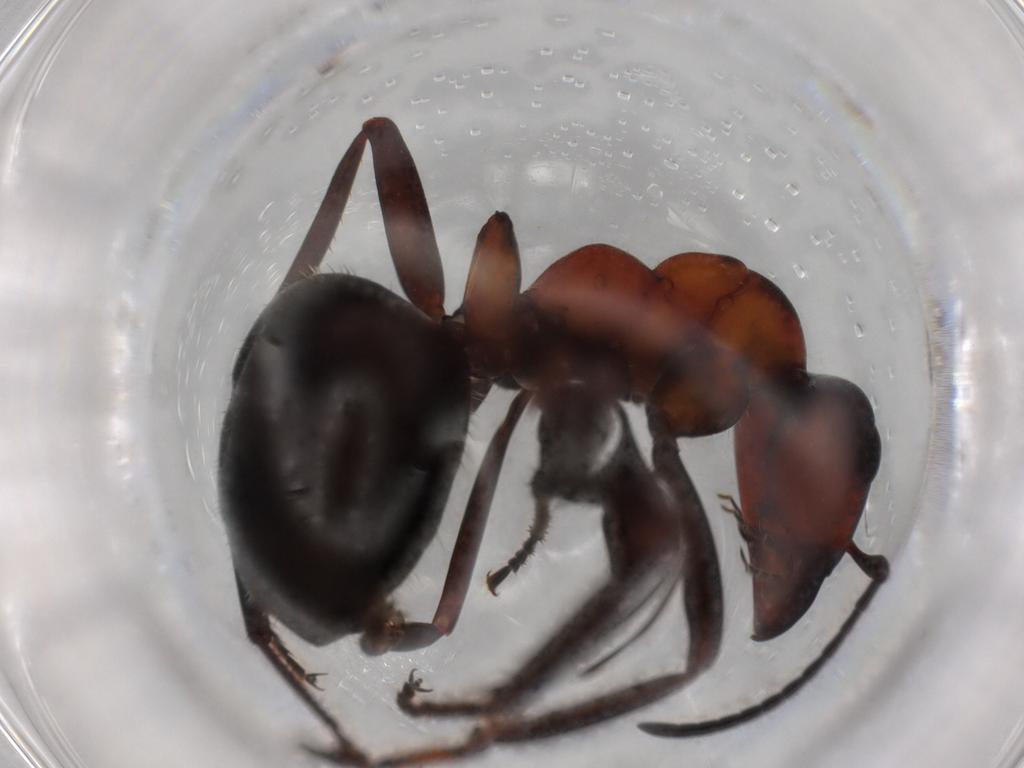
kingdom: Animalia
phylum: Arthropoda
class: Insecta
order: Hymenoptera
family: Formicidae
